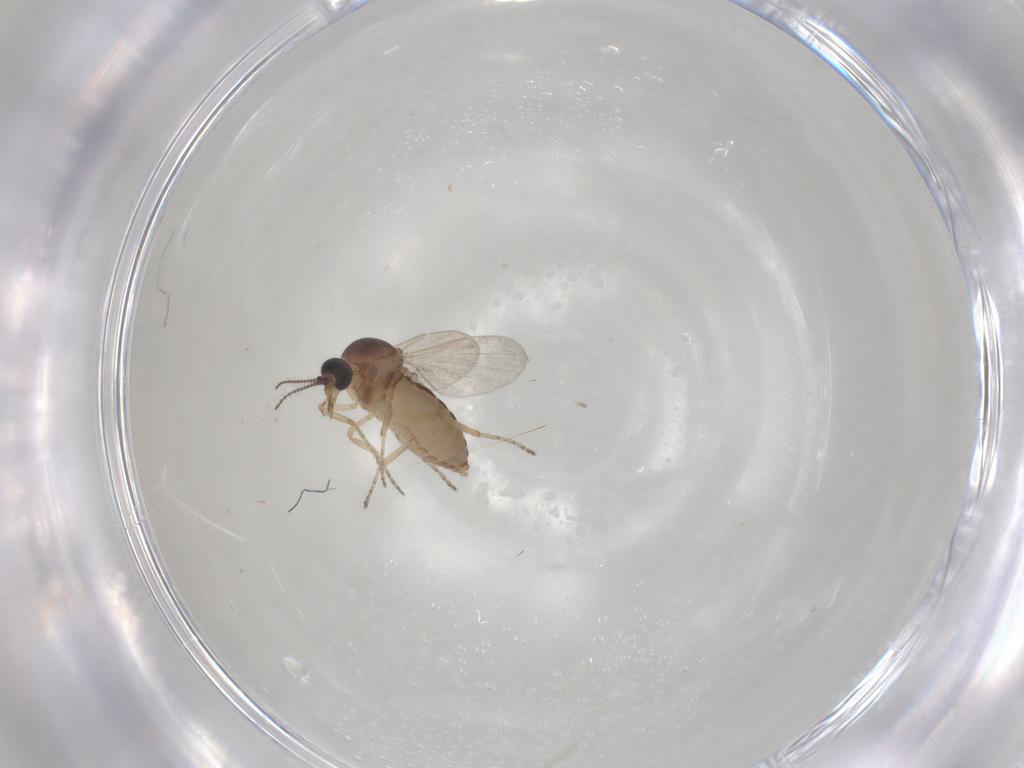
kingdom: Animalia
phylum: Arthropoda
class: Insecta
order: Diptera
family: Ceratopogonidae
